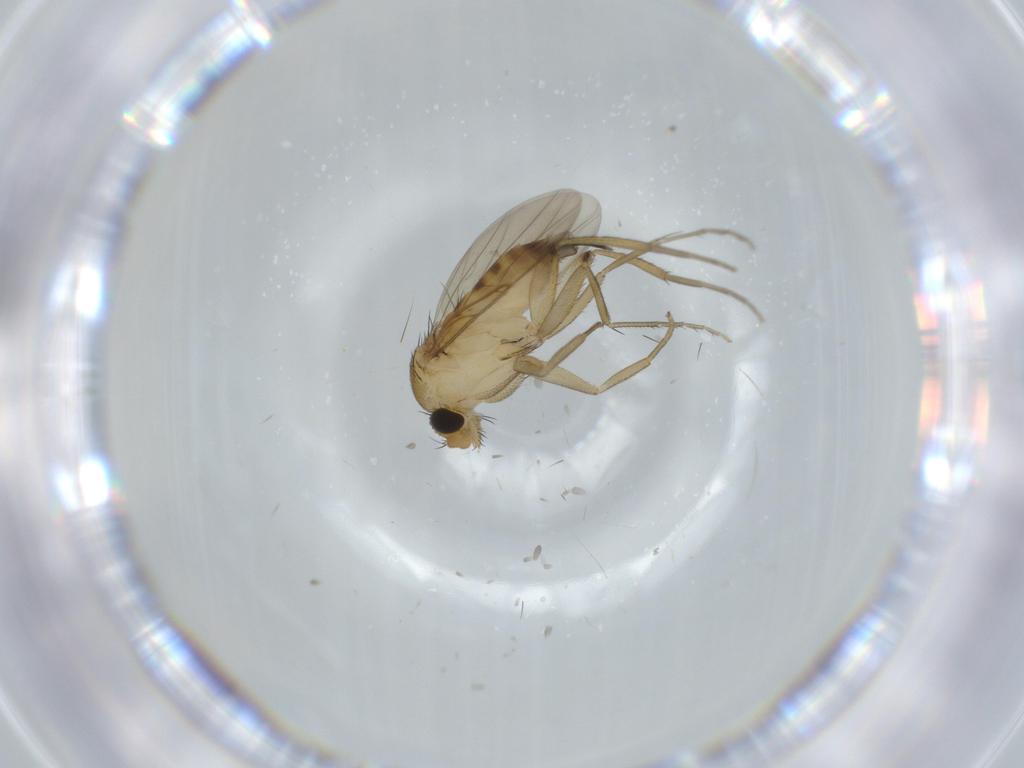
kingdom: Animalia
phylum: Arthropoda
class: Insecta
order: Diptera
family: Phoridae
